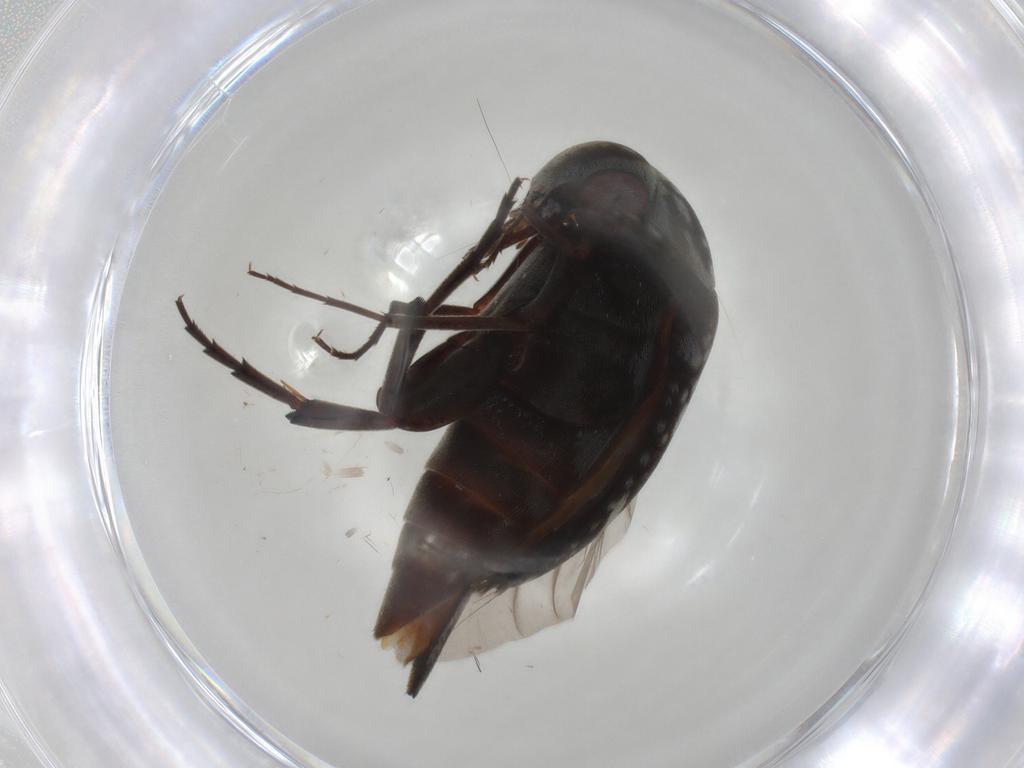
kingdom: Animalia
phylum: Arthropoda
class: Insecta
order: Coleoptera
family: Mordellidae
